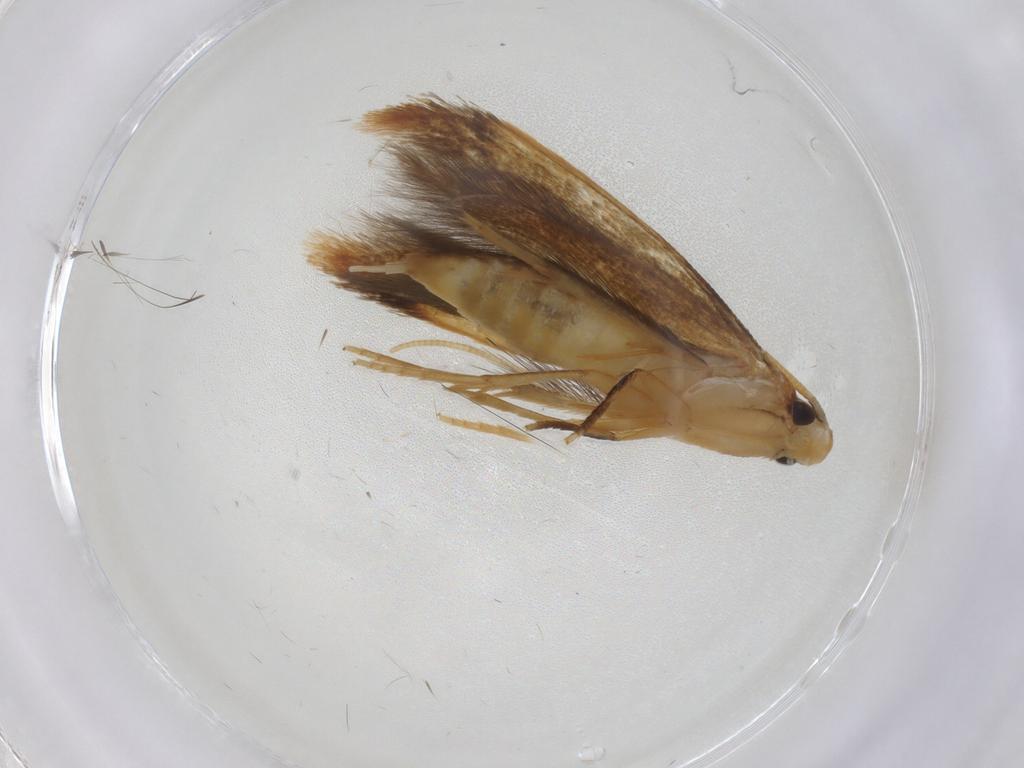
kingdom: Animalia
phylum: Arthropoda
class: Insecta
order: Lepidoptera
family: Tineidae
